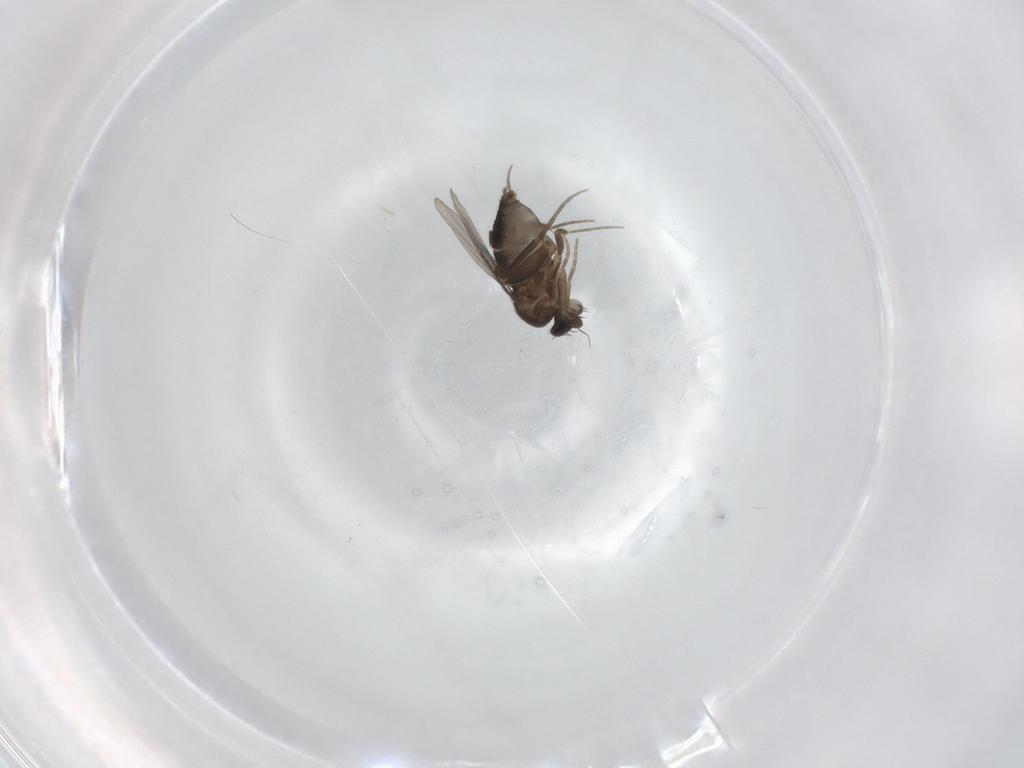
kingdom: Animalia
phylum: Arthropoda
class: Insecta
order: Diptera
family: Phoridae
